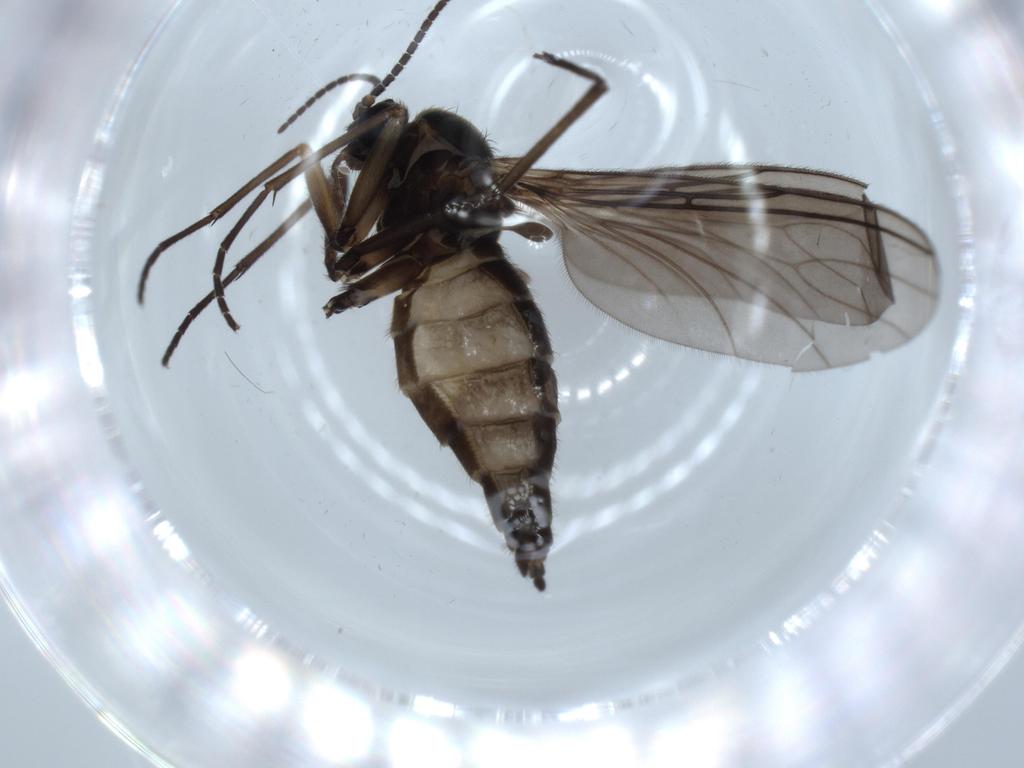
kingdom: Animalia
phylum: Arthropoda
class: Insecta
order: Diptera
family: Sciaridae
